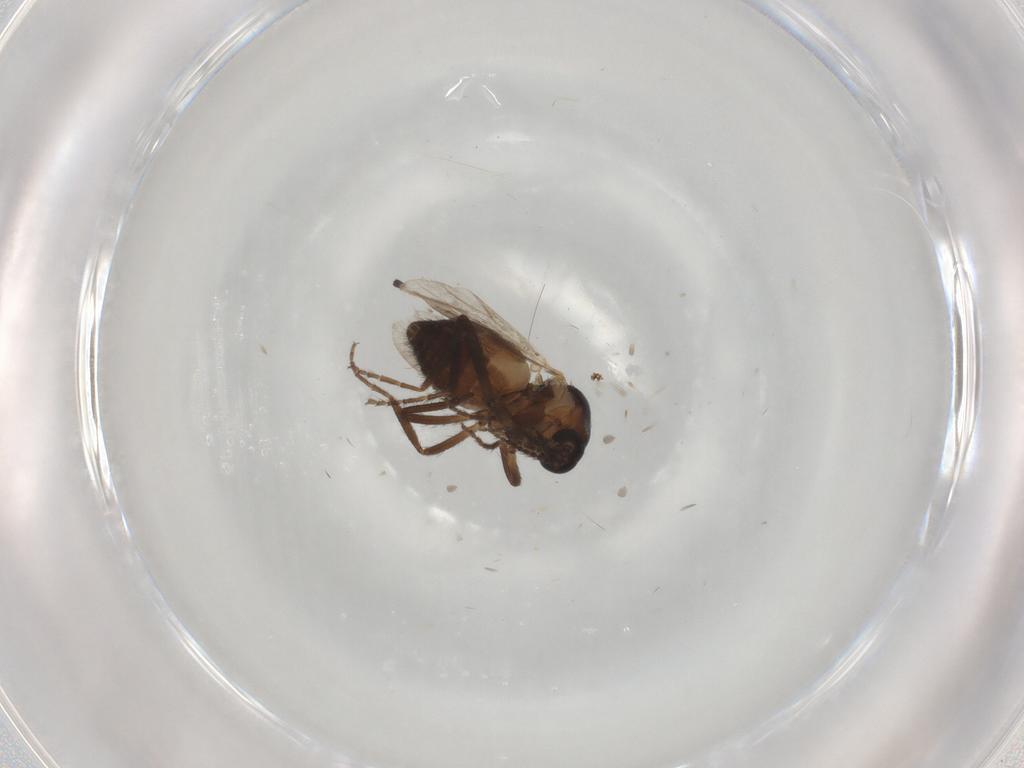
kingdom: Animalia
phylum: Arthropoda
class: Insecta
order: Diptera
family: Ceratopogonidae
